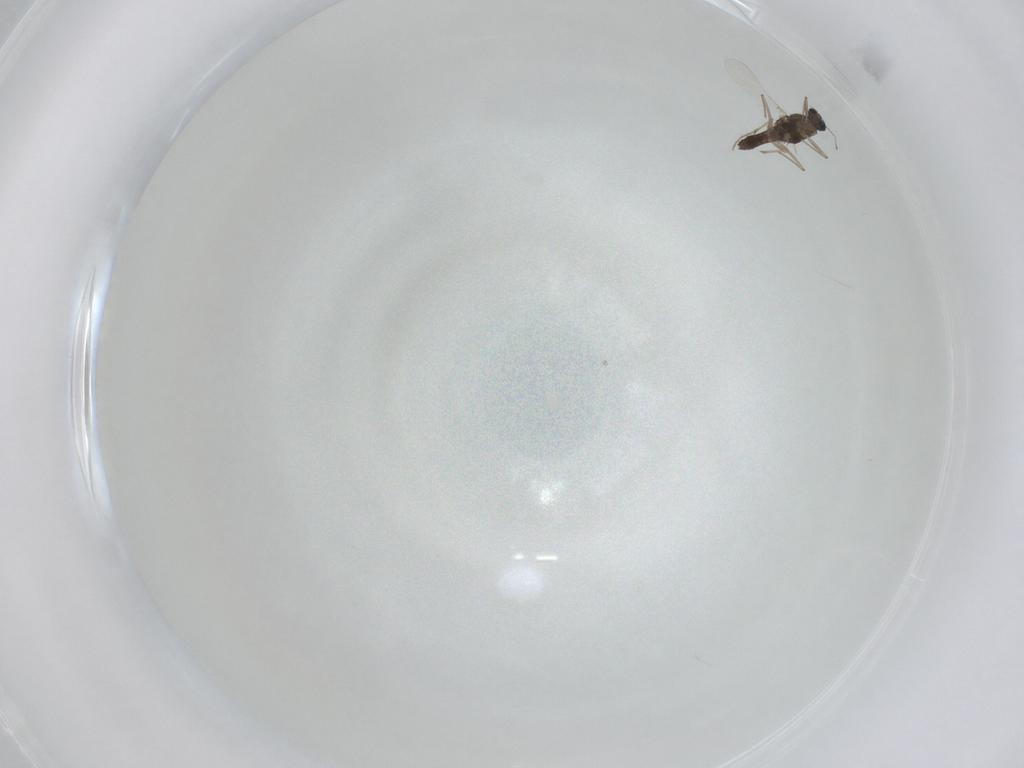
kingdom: Animalia
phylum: Arthropoda
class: Insecta
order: Diptera
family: Chironomidae
